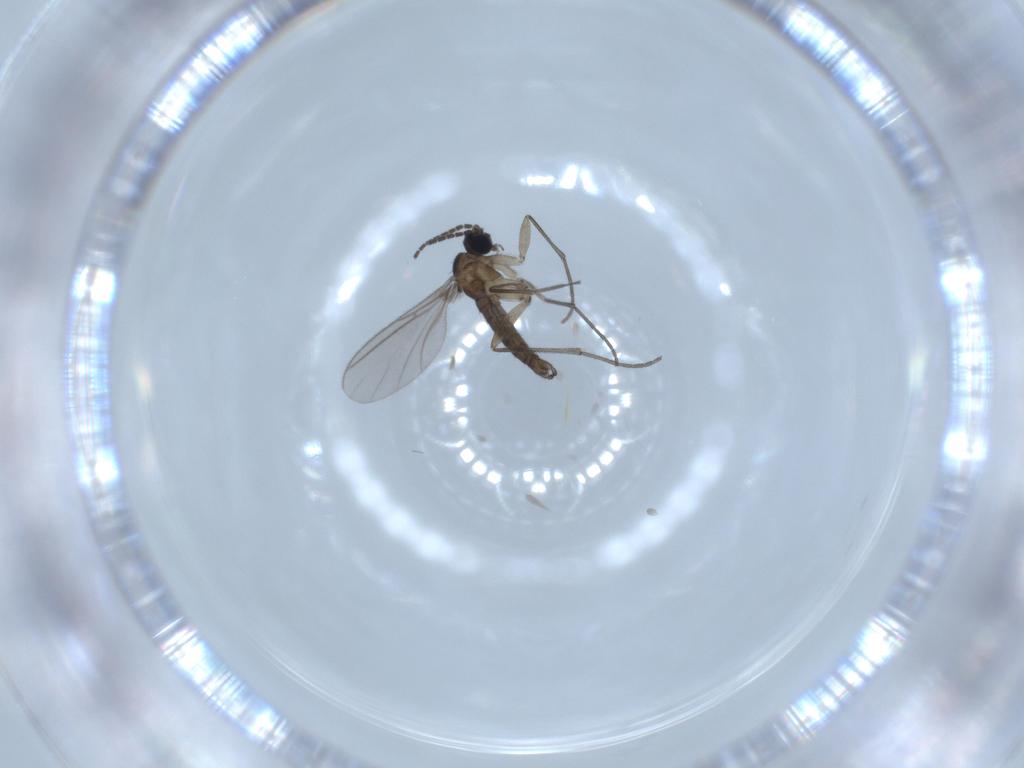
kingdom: Animalia
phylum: Arthropoda
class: Insecta
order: Diptera
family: Sciaridae
